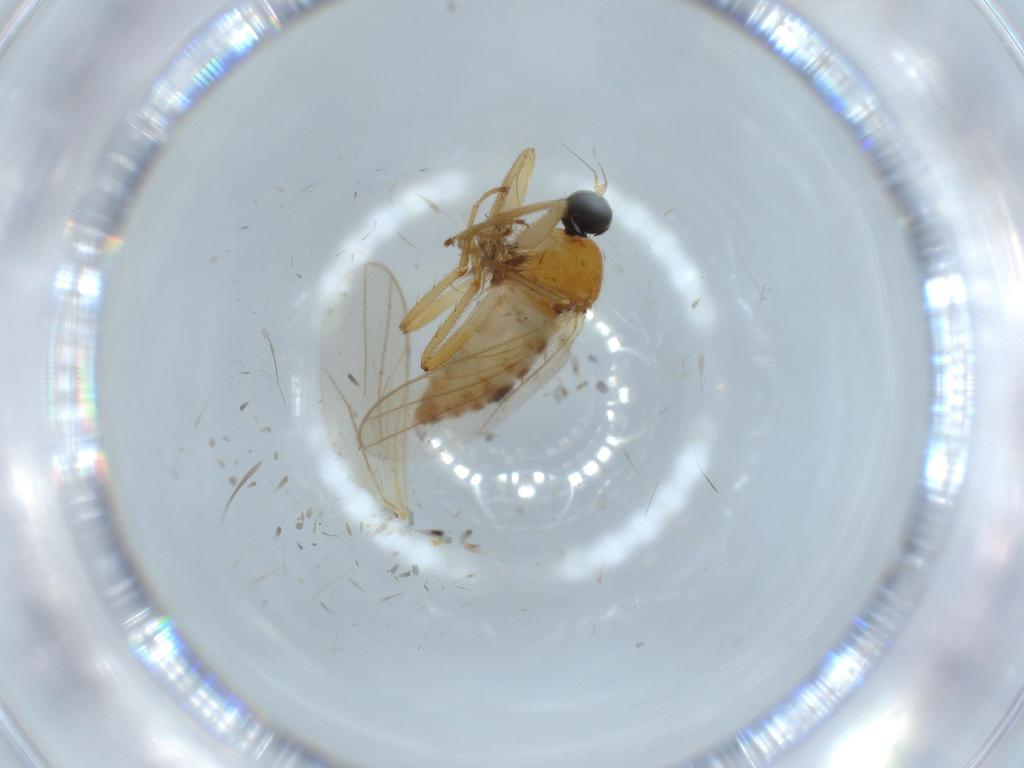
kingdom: Animalia
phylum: Arthropoda
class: Insecta
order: Diptera
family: Hybotidae
